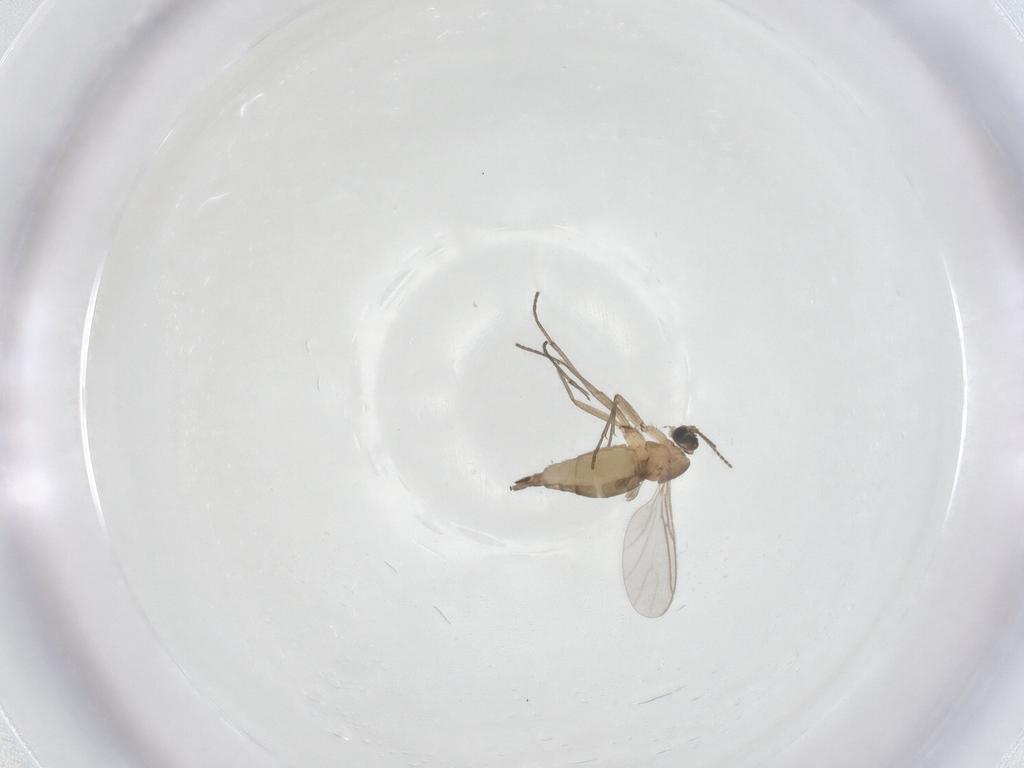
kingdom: Animalia
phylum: Arthropoda
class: Insecta
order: Diptera
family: Sciaridae
